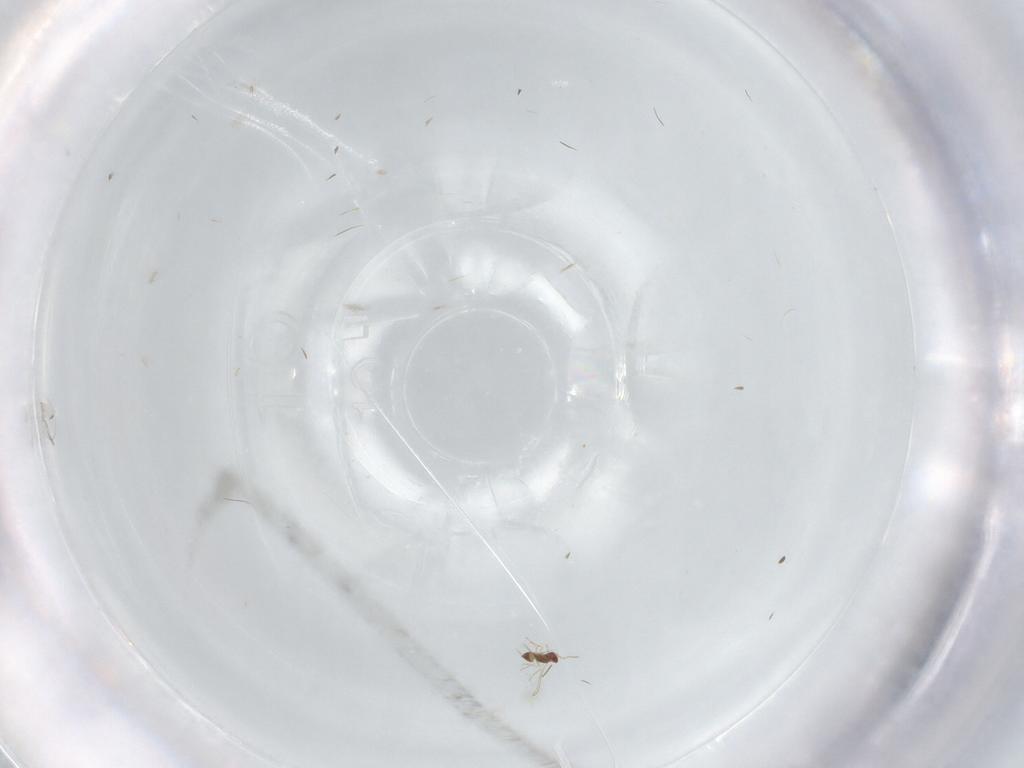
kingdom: Animalia
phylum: Arthropoda
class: Insecta
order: Hymenoptera
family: Mymaridae
